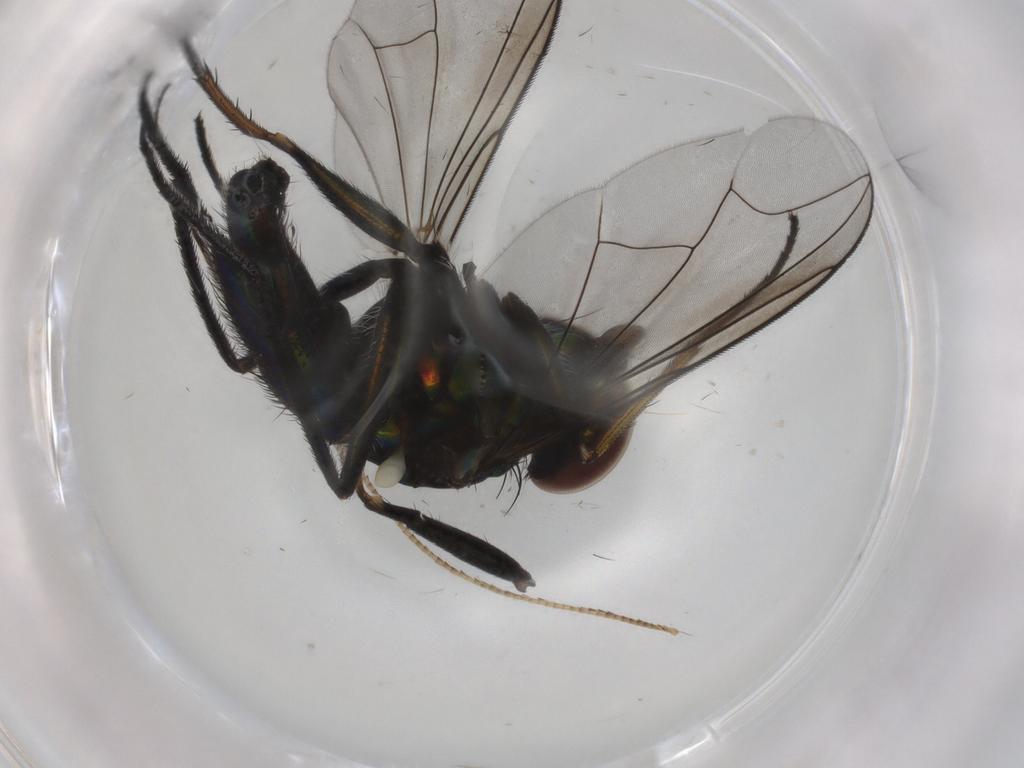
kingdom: Animalia
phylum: Arthropoda
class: Insecta
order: Diptera
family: Dolichopodidae
